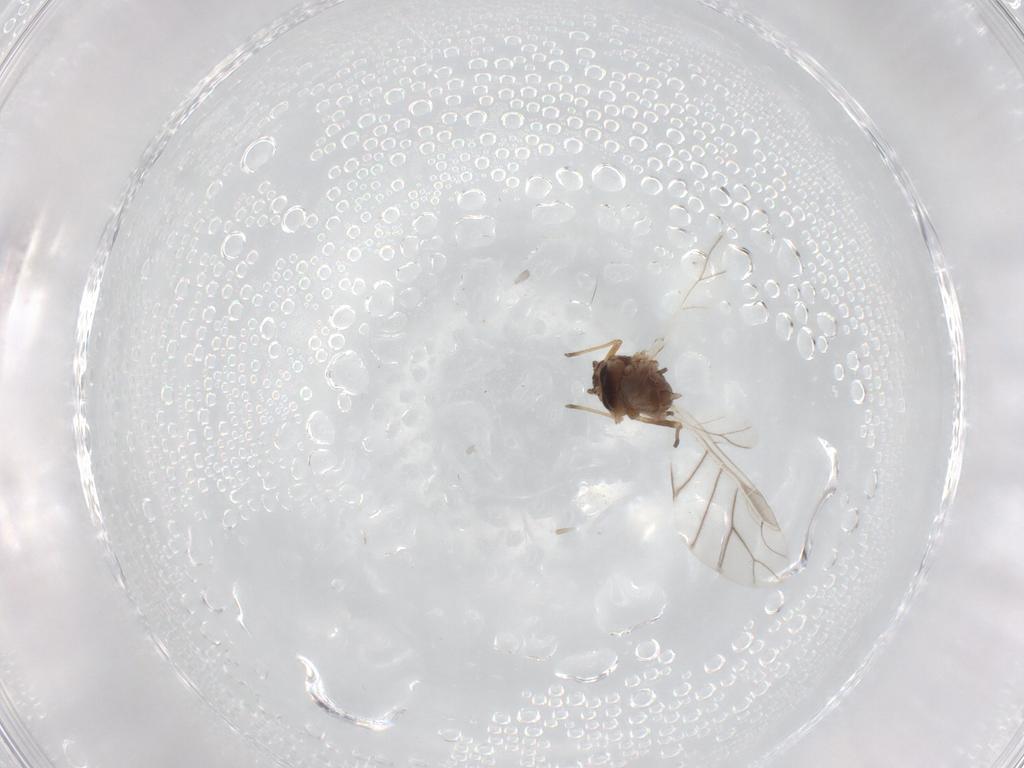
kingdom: Animalia
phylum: Arthropoda
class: Insecta
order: Hemiptera
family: Aphididae
